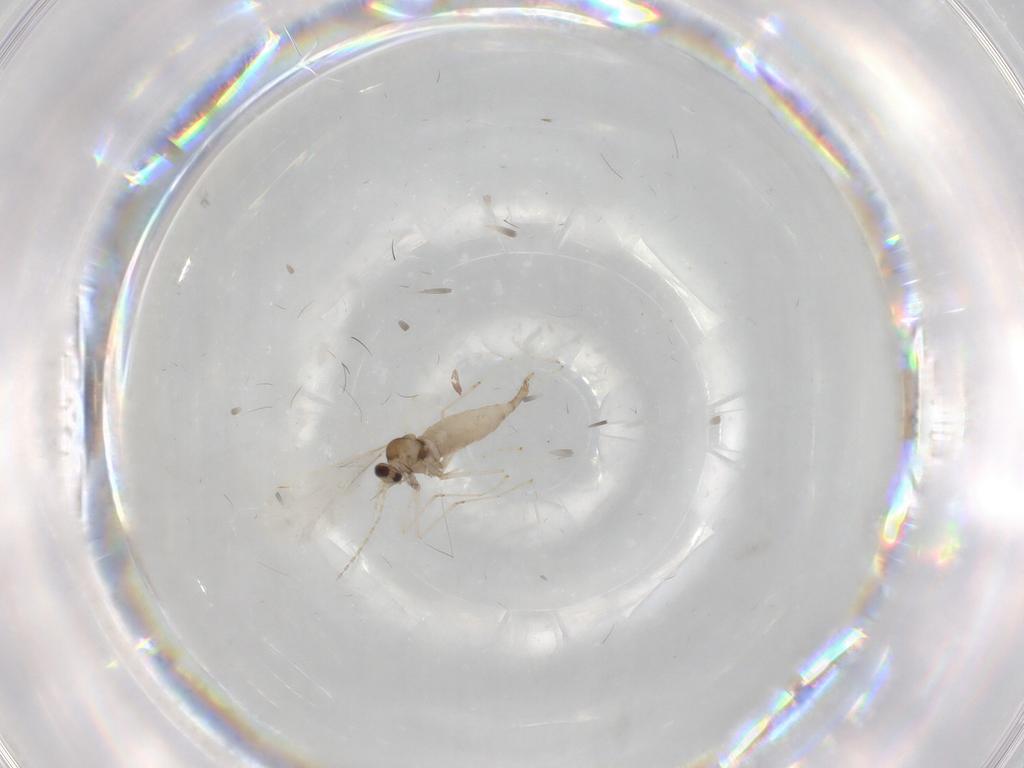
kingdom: Animalia
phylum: Arthropoda
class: Insecta
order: Diptera
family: Cecidomyiidae
